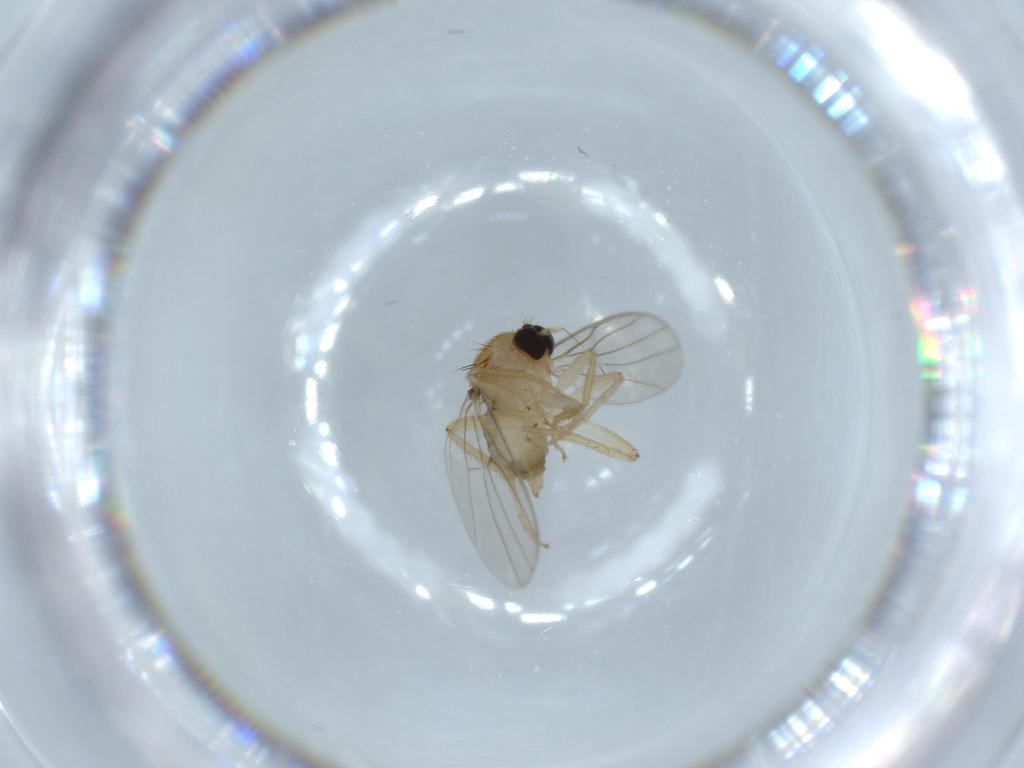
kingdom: Animalia
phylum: Arthropoda
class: Insecta
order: Diptera
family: Hybotidae
